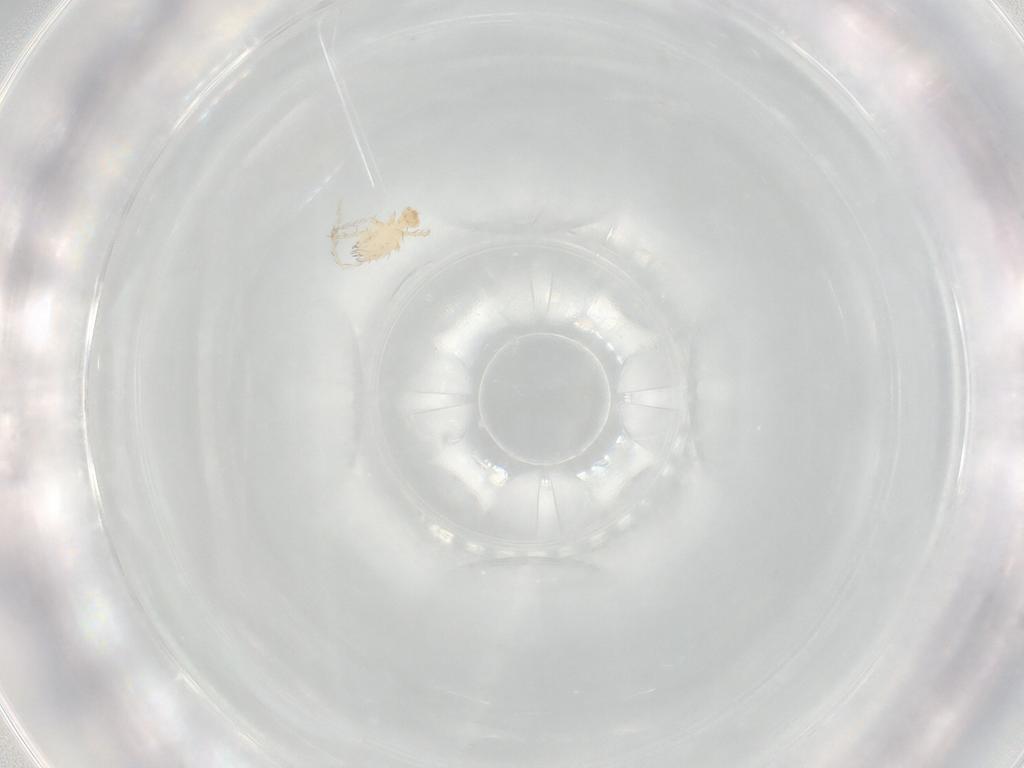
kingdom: Animalia
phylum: Arthropoda
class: Arachnida
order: Trombidiformes
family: Erythraeidae
